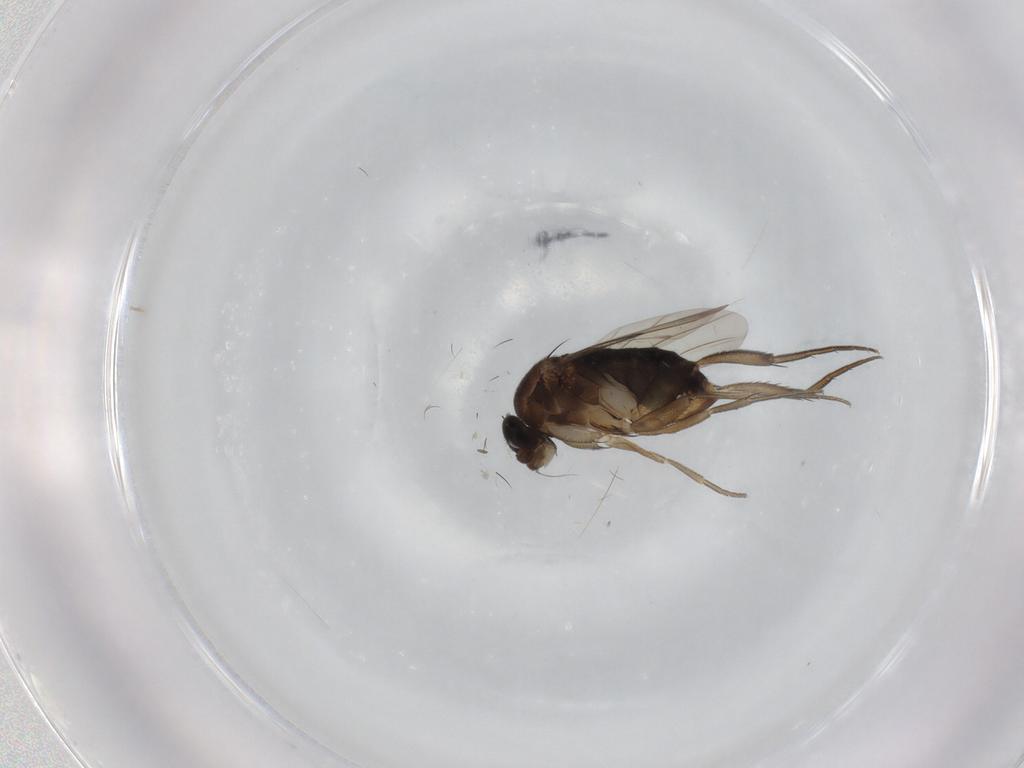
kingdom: Animalia
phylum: Arthropoda
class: Insecta
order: Diptera
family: Phoridae
